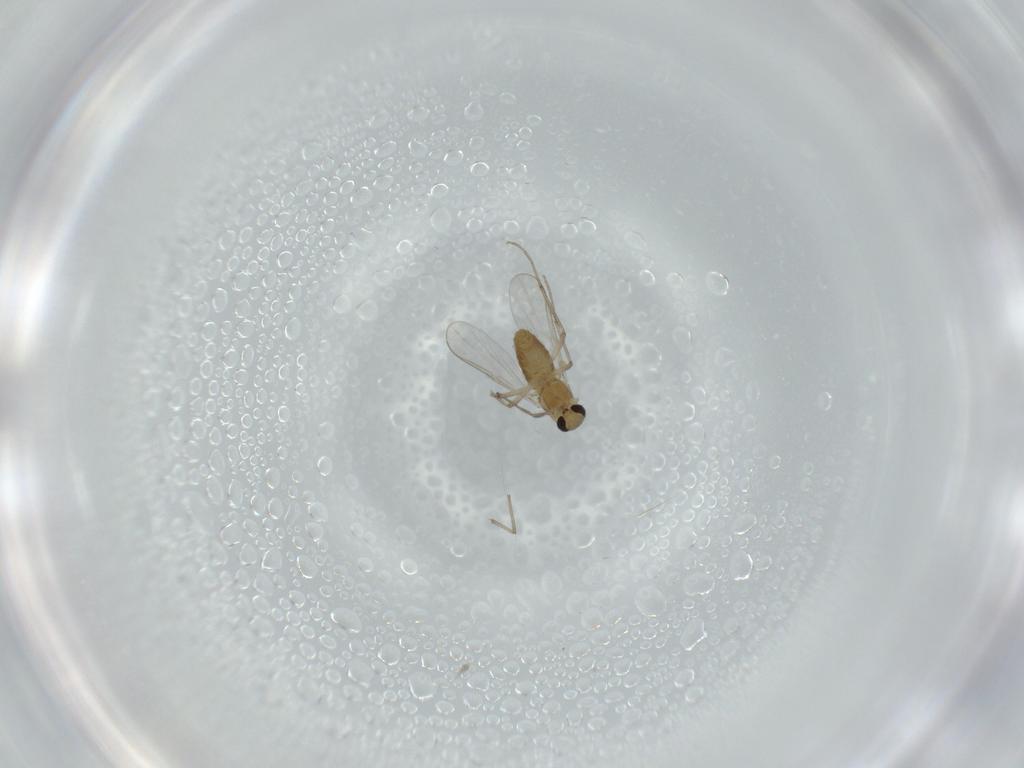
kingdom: Animalia
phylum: Arthropoda
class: Insecta
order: Diptera
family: Chironomidae
